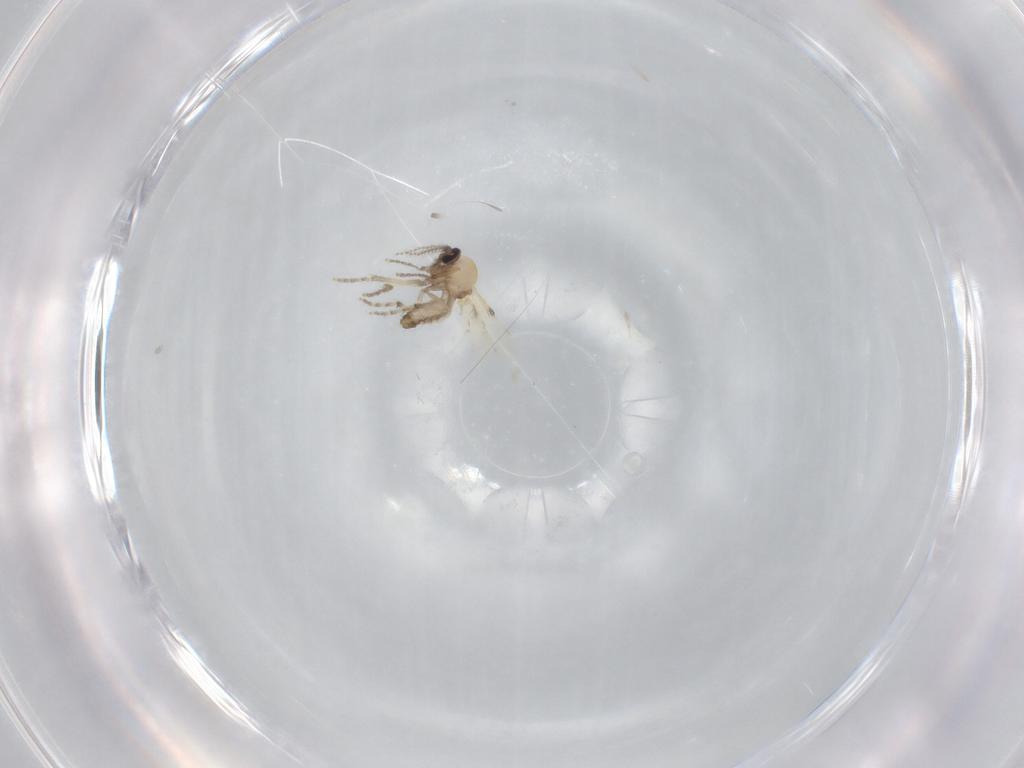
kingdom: Animalia
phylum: Arthropoda
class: Insecta
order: Diptera
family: Ceratopogonidae
